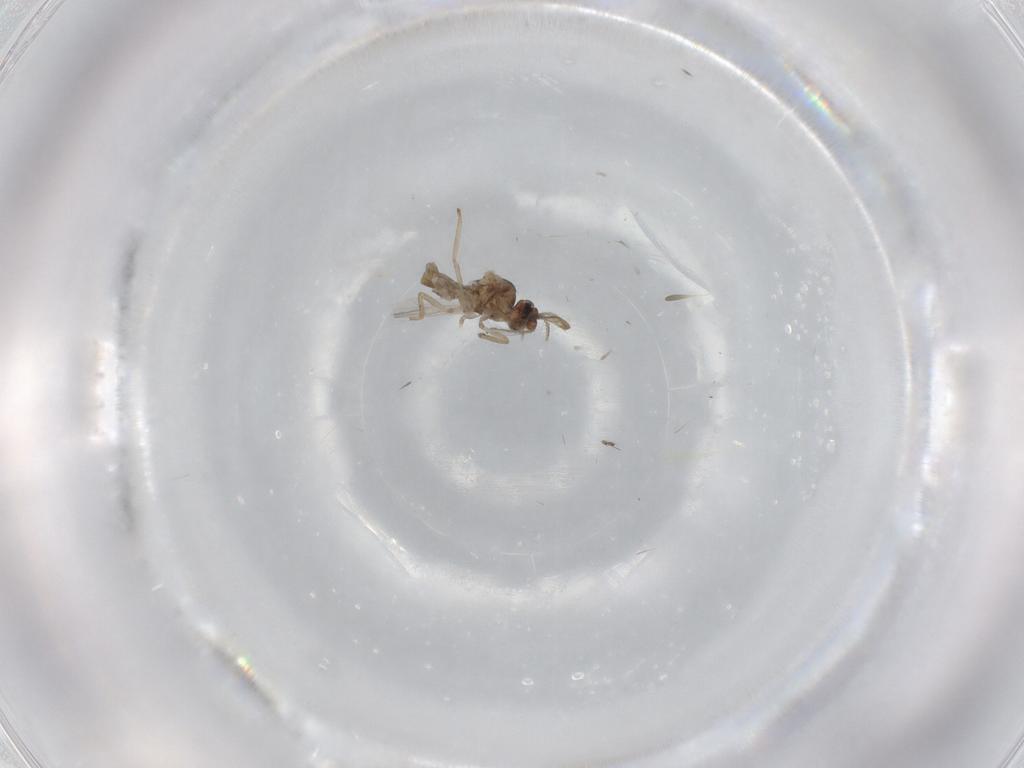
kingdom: Animalia
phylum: Arthropoda
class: Insecta
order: Diptera
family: Ceratopogonidae
